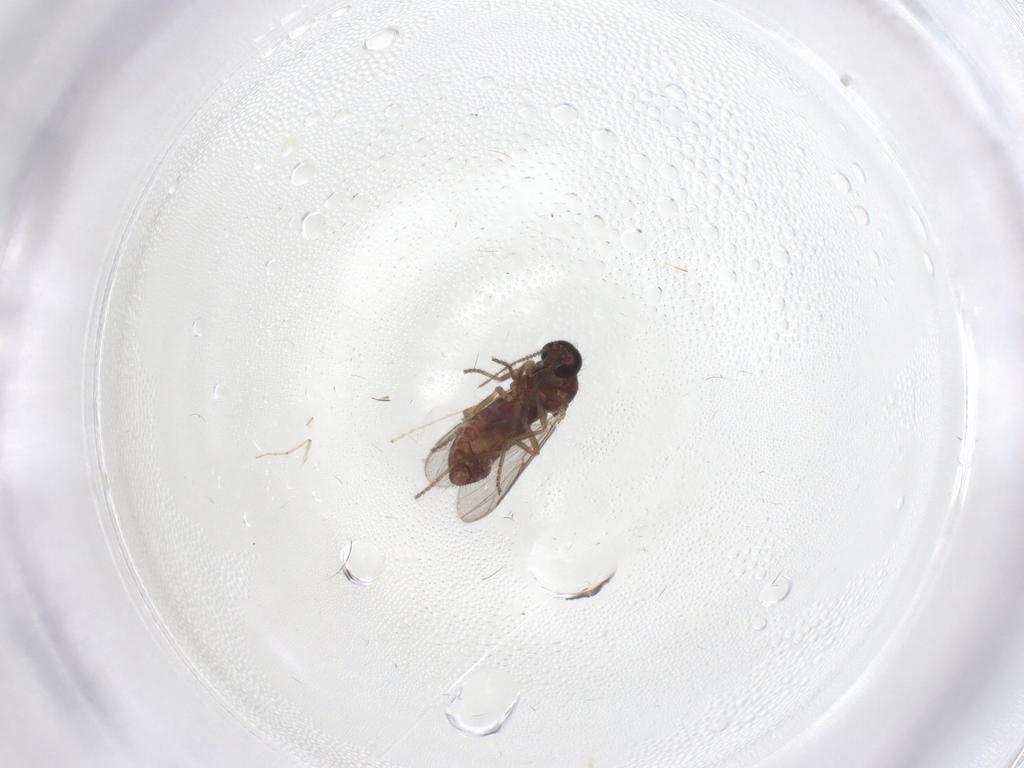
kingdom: Animalia
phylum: Arthropoda
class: Insecta
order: Diptera
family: Ceratopogonidae
